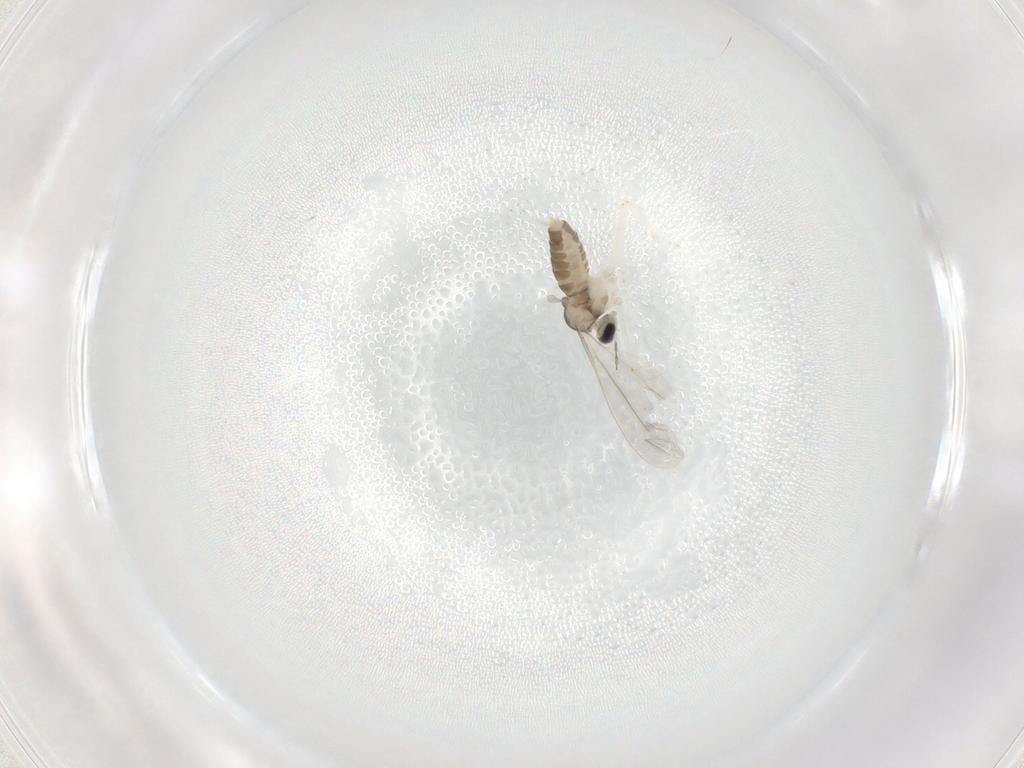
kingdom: Animalia
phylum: Arthropoda
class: Insecta
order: Diptera
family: Cecidomyiidae
